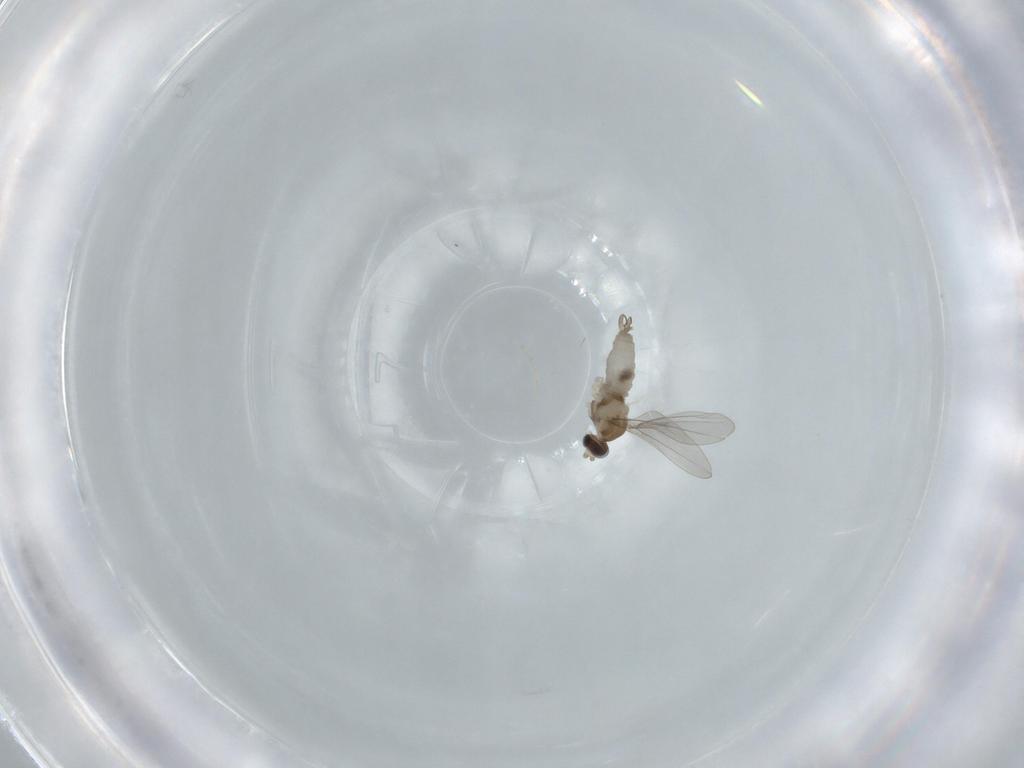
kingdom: Animalia
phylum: Arthropoda
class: Insecta
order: Diptera
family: Cecidomyiidae
